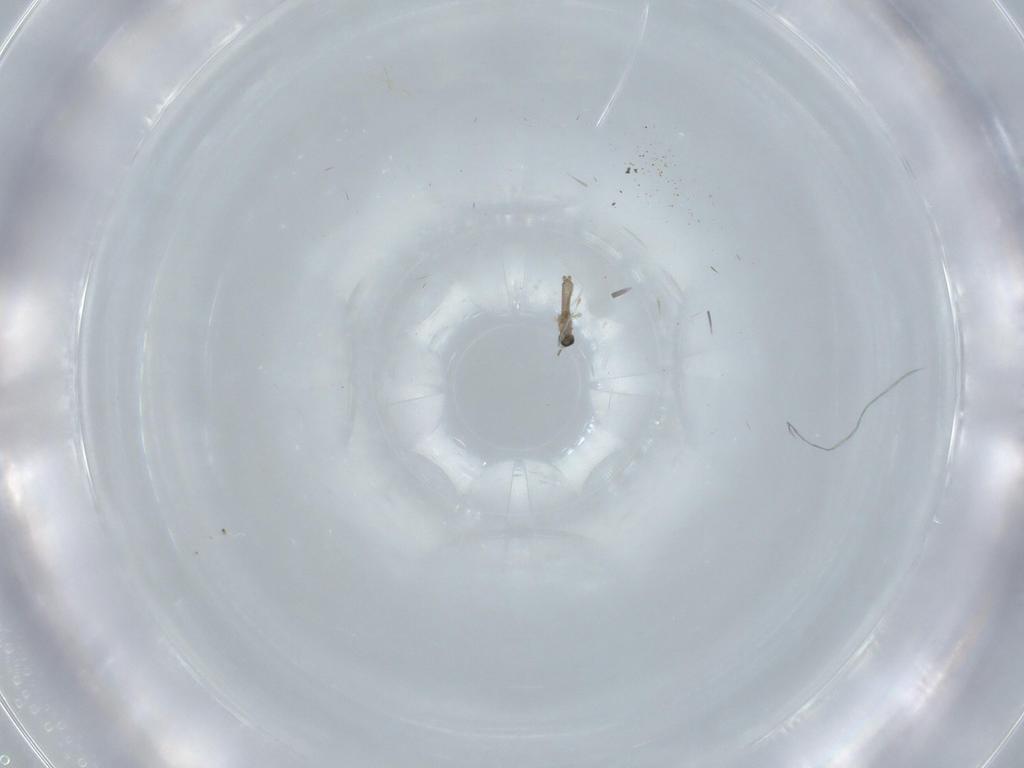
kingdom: Animalia
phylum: Arthropoda
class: Insecta
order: Diptera
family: Cecidomyiidae
